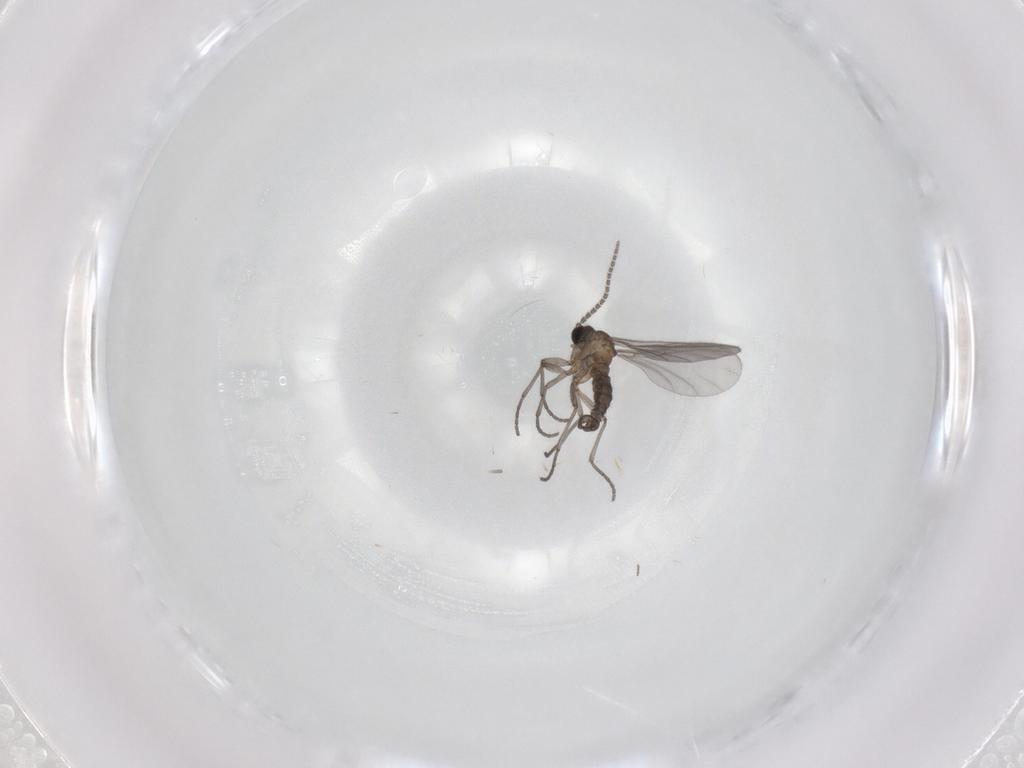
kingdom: Animalia
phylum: Arthropoda
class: Insecta
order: Diptera
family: Chironomidae
